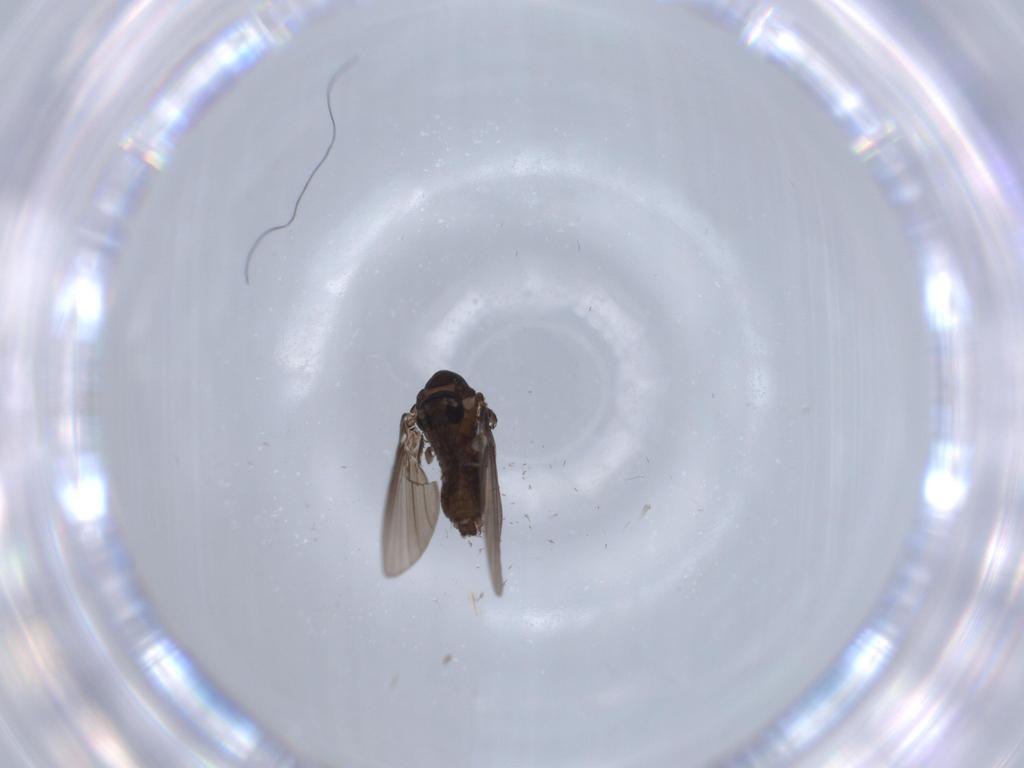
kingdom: Animalia
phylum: Arthropoda
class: Insecta
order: Diptera
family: Psychodidae
